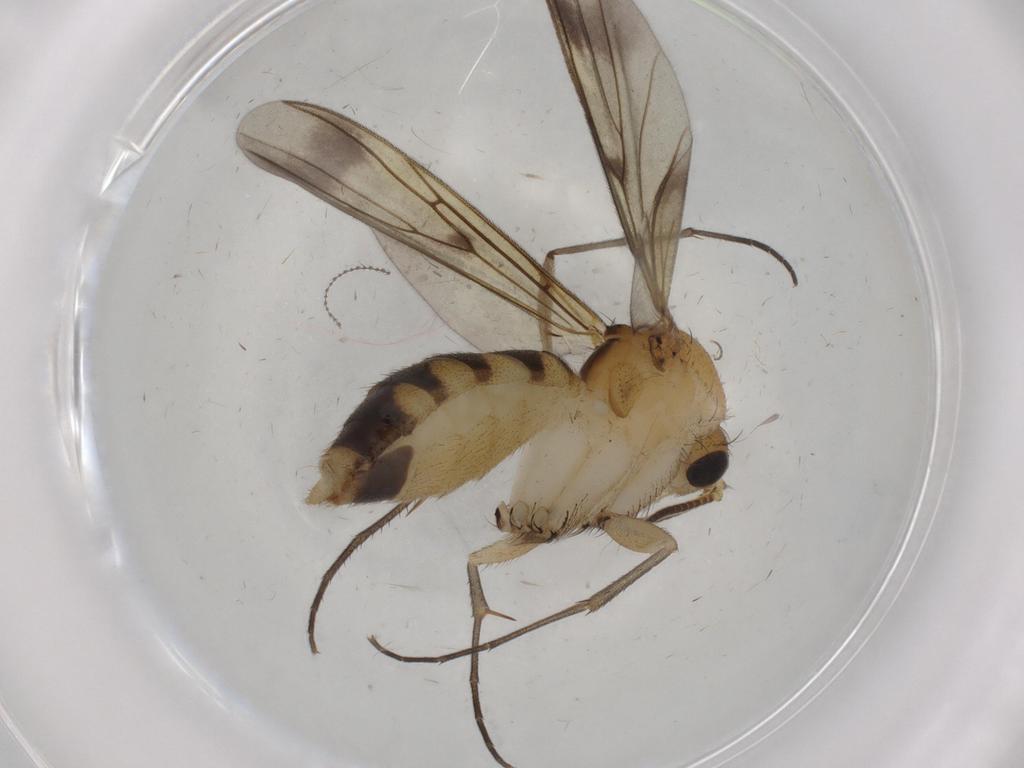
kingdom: Animalia
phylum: Arthropoda
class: Insecta
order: Diptera
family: Mycetophilidae
